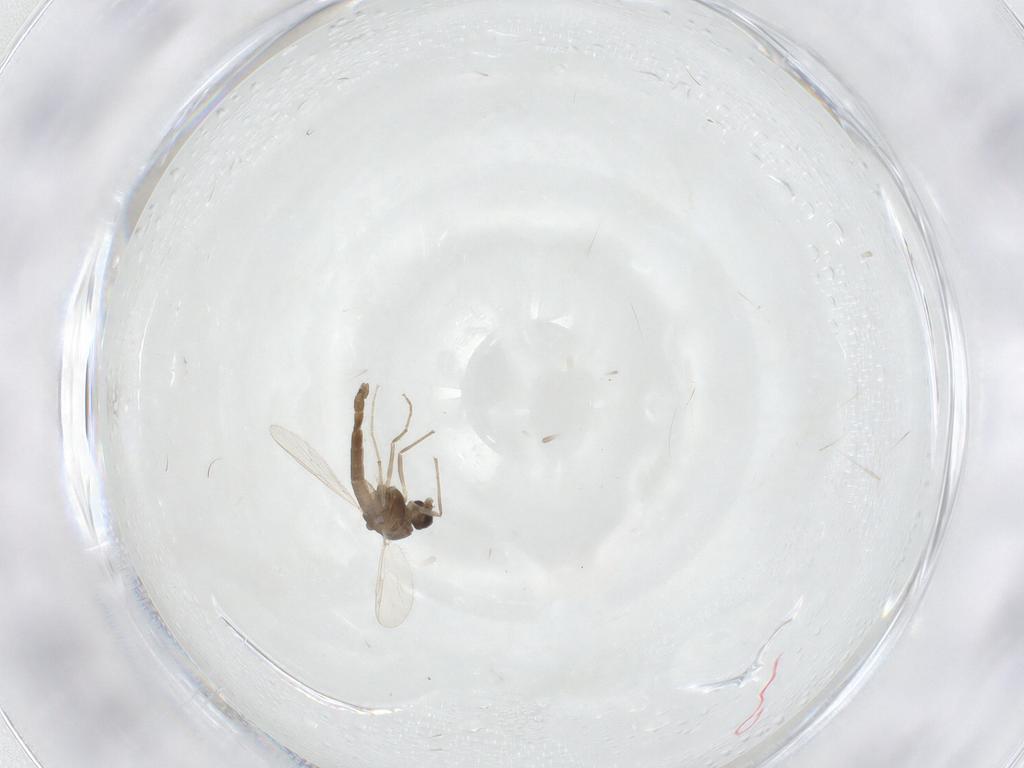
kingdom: Animalia
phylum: Arthropoda
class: Insecta
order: Diptera
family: Chironomidae
